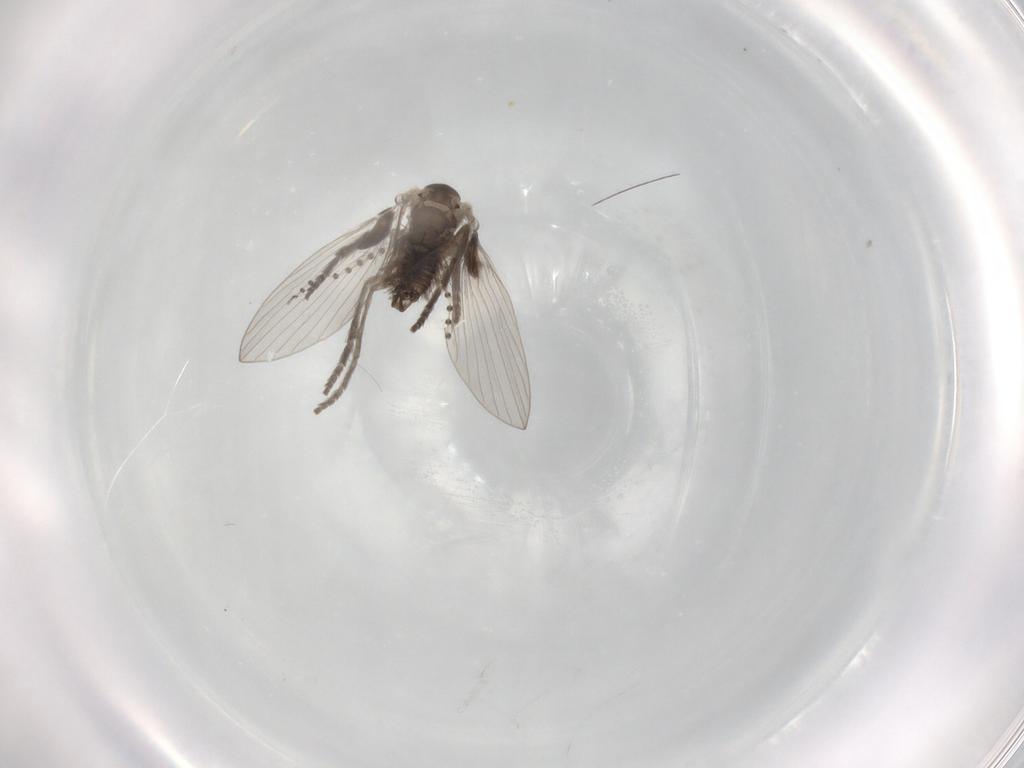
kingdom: Animalia
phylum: Arthropoda
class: Insecta
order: Diptera
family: Psychodidae
